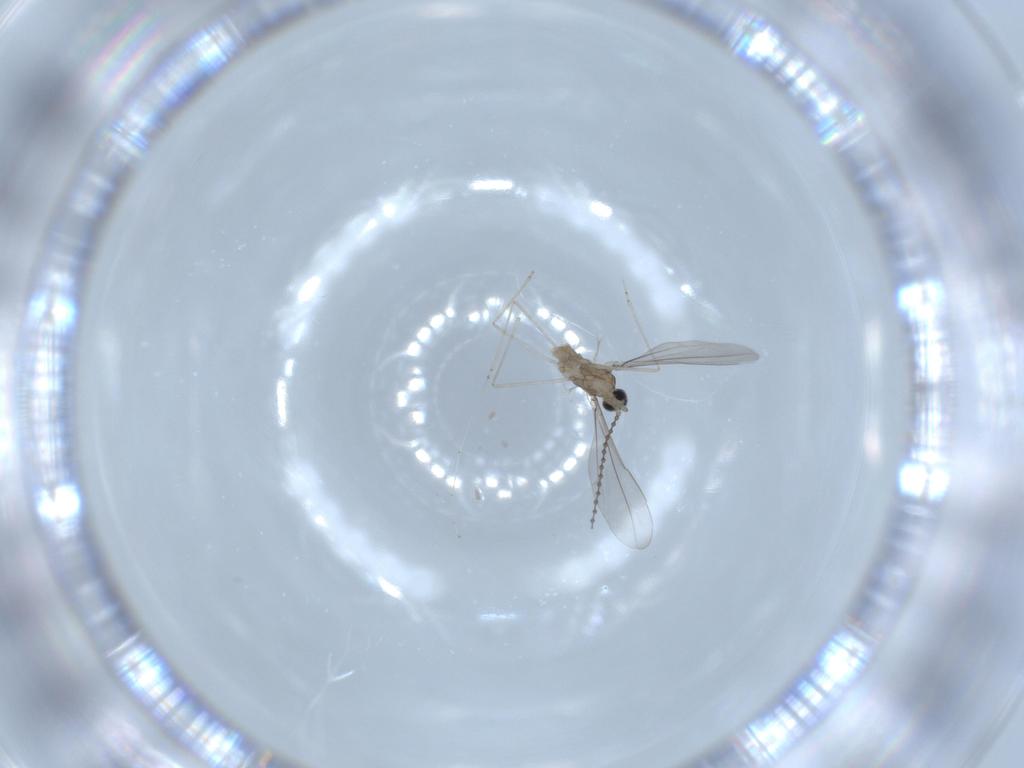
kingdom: Animalia
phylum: Arthropoda
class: Insecta
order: Diptera
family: Cecidomyiidae
